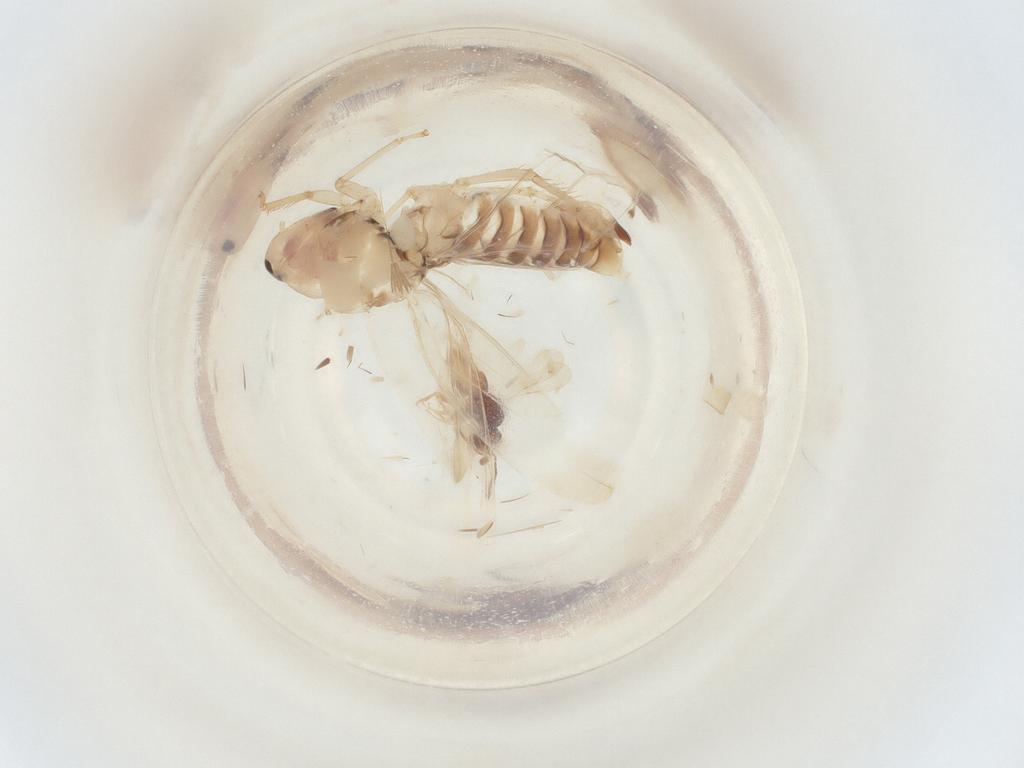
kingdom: Animalia
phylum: Arthropoda
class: Insecta
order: Hemiptera
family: Cicadellidae
